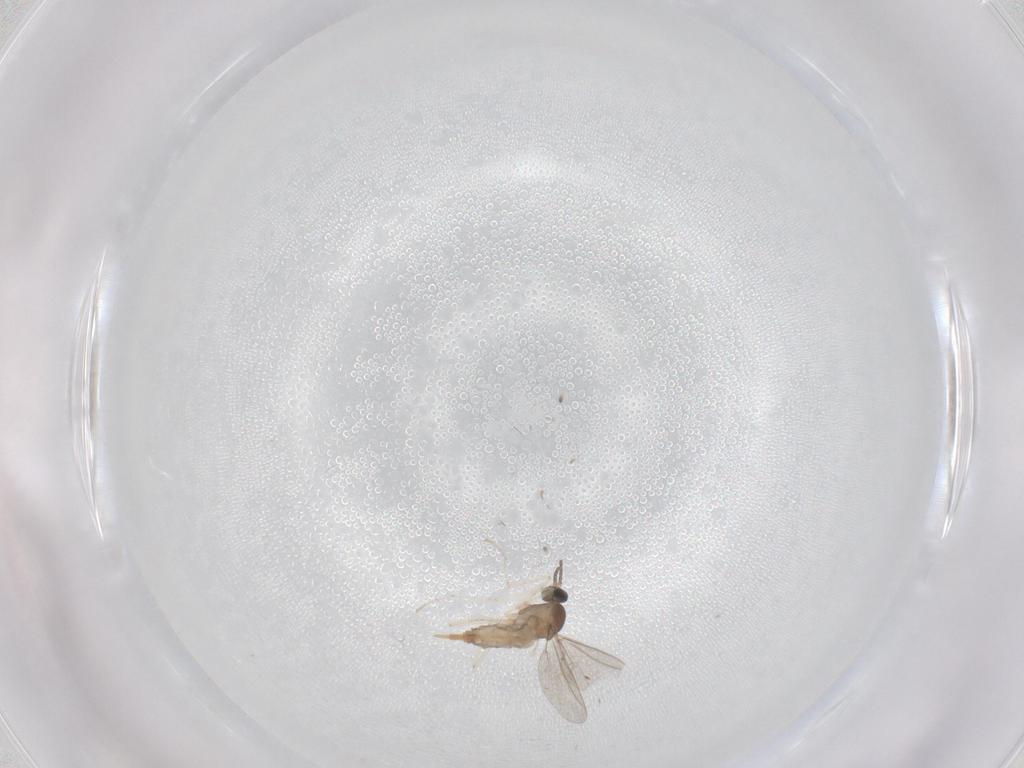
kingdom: Animalia
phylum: Arthropoda
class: Insecta
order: Diptera
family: Cecidomyiidae
